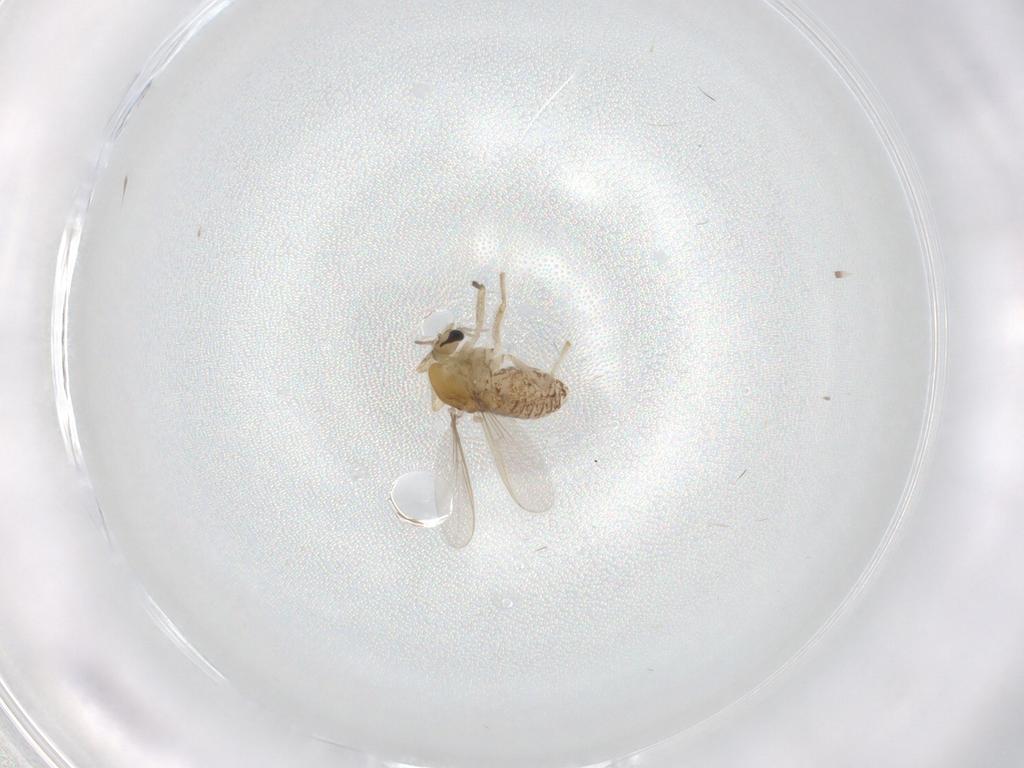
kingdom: Animalia
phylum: Arthropoda
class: Insecta
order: Diptera
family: Chironomidae
